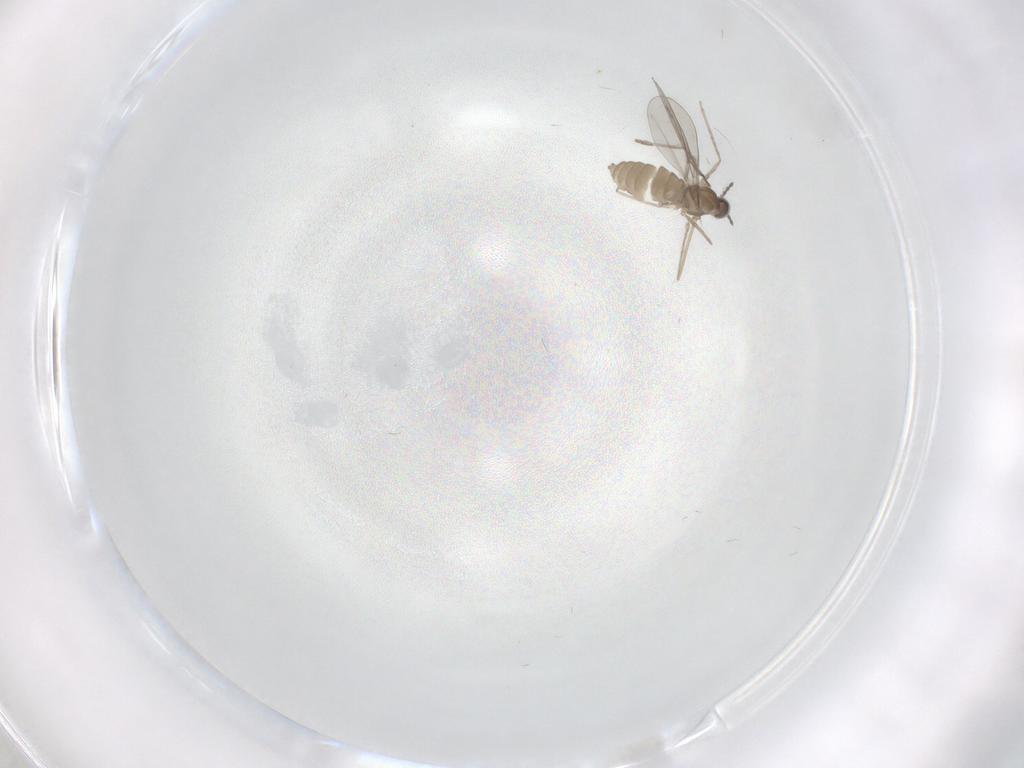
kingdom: Animalia
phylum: Arthropoda
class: Insecta
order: Diptera
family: Cecidomyiidae
